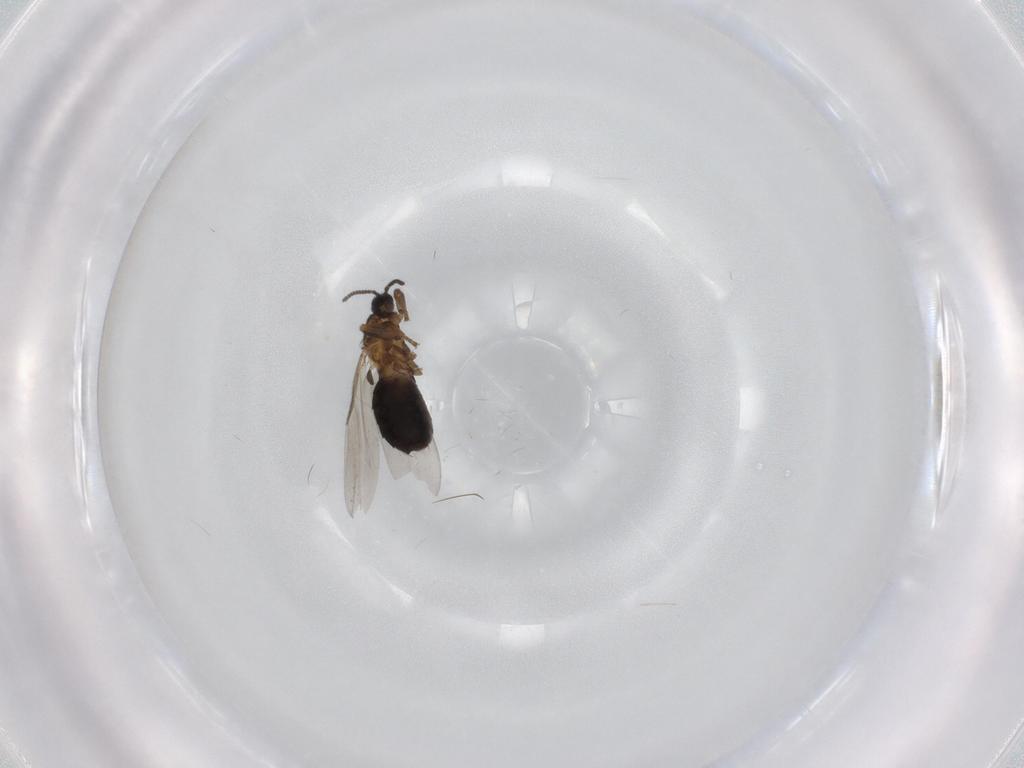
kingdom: Animalia
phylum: Arthropoda
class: Insecta
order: Diptera
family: Scatopsidae
